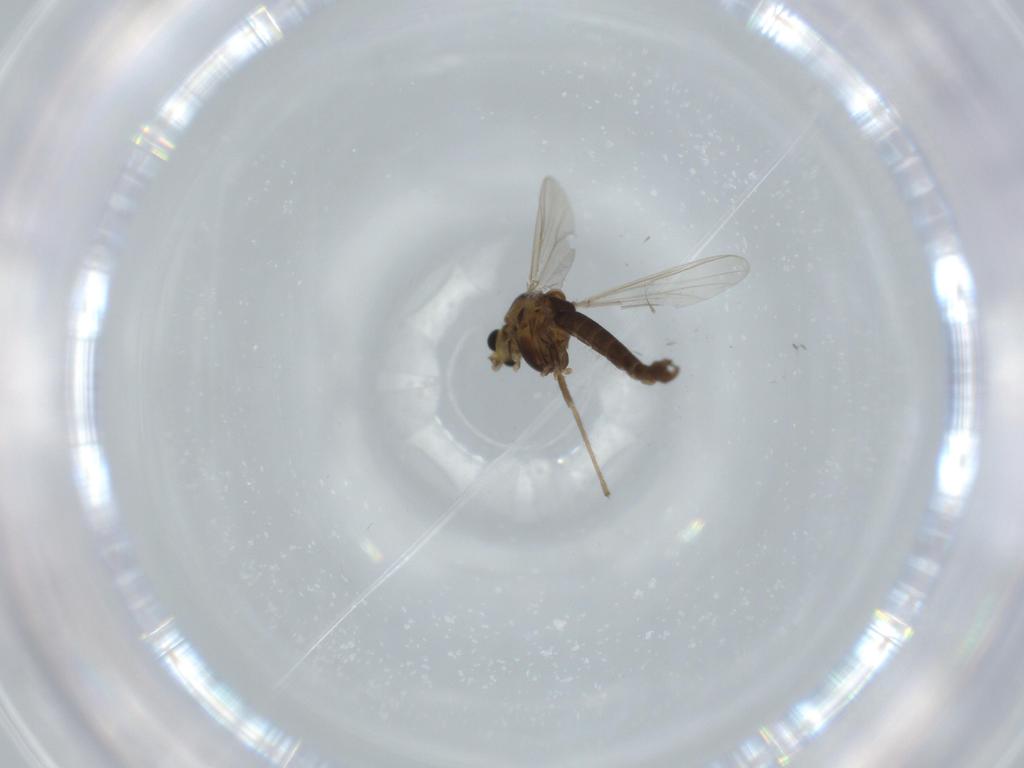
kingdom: Animalia
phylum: Arthropoda
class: Insecta
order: Diptera
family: Chironomidae
